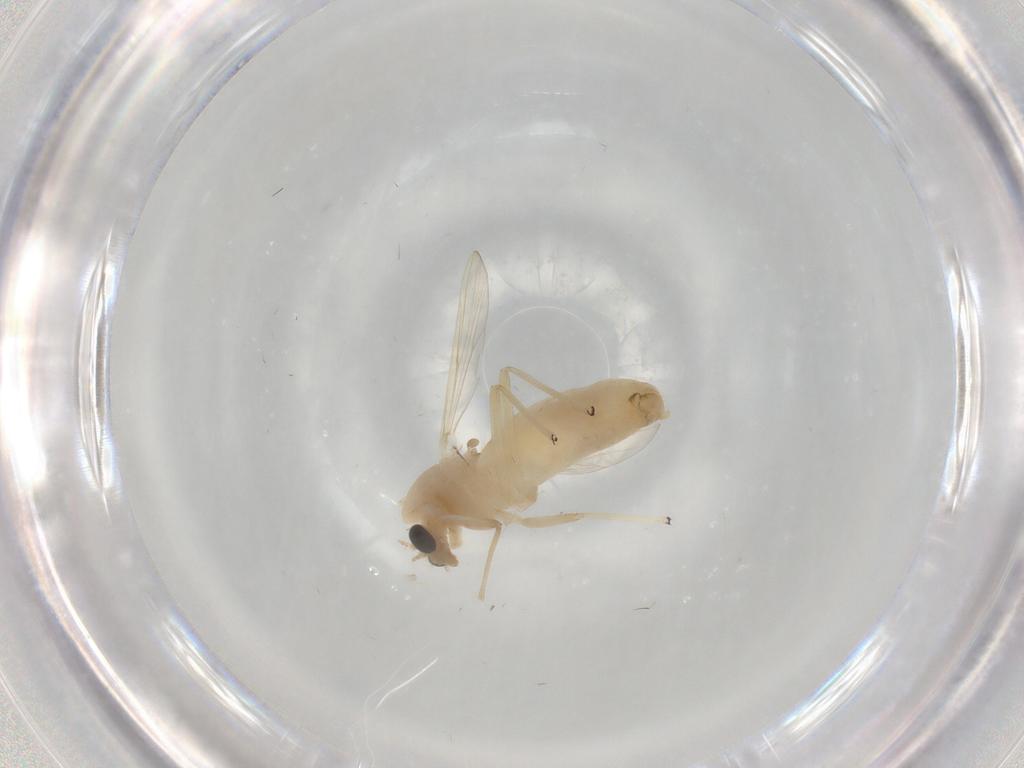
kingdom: Animalia
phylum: Arthropoda
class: Insecta
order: Diptera
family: Chironomidae
